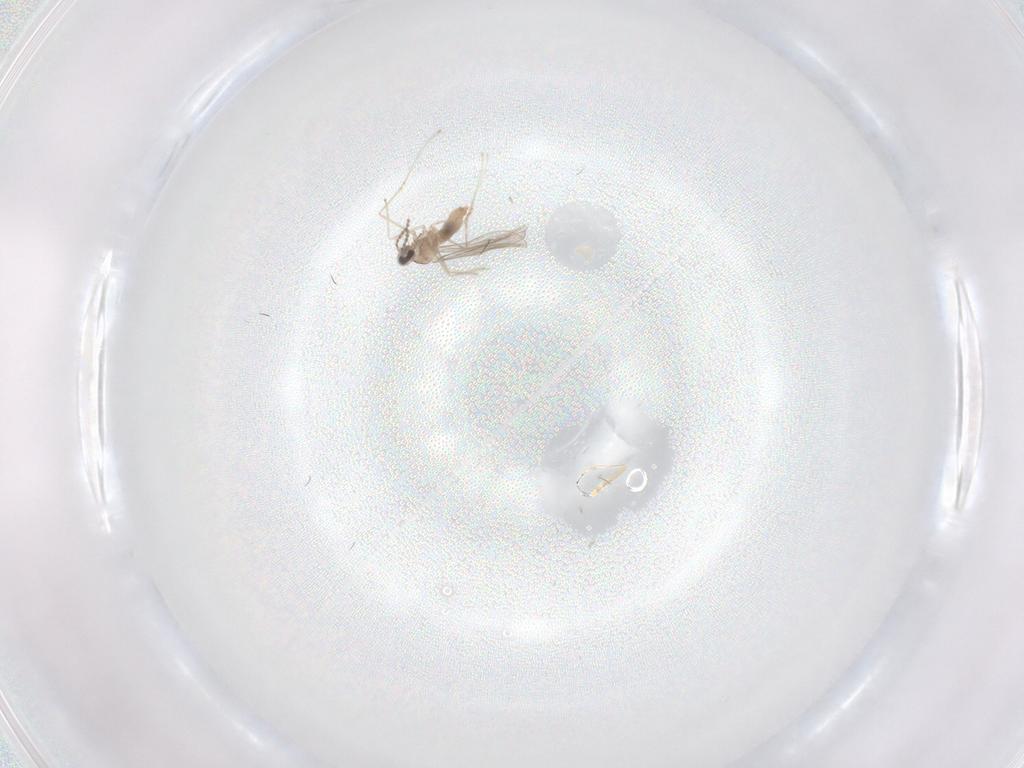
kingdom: Animalia
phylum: Arthropoda
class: Insecta
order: Diptera
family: Cecidomyiidae
